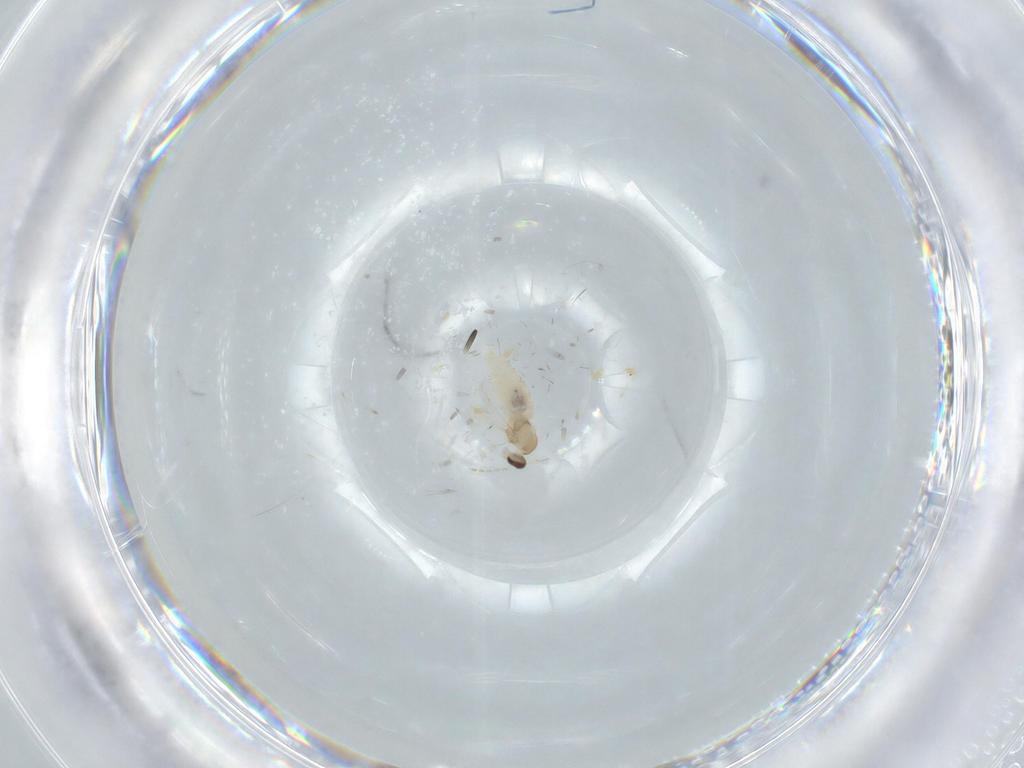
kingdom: Animalia
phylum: Arthropoda
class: Insecta
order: Diptera
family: Cecidomyiidae
